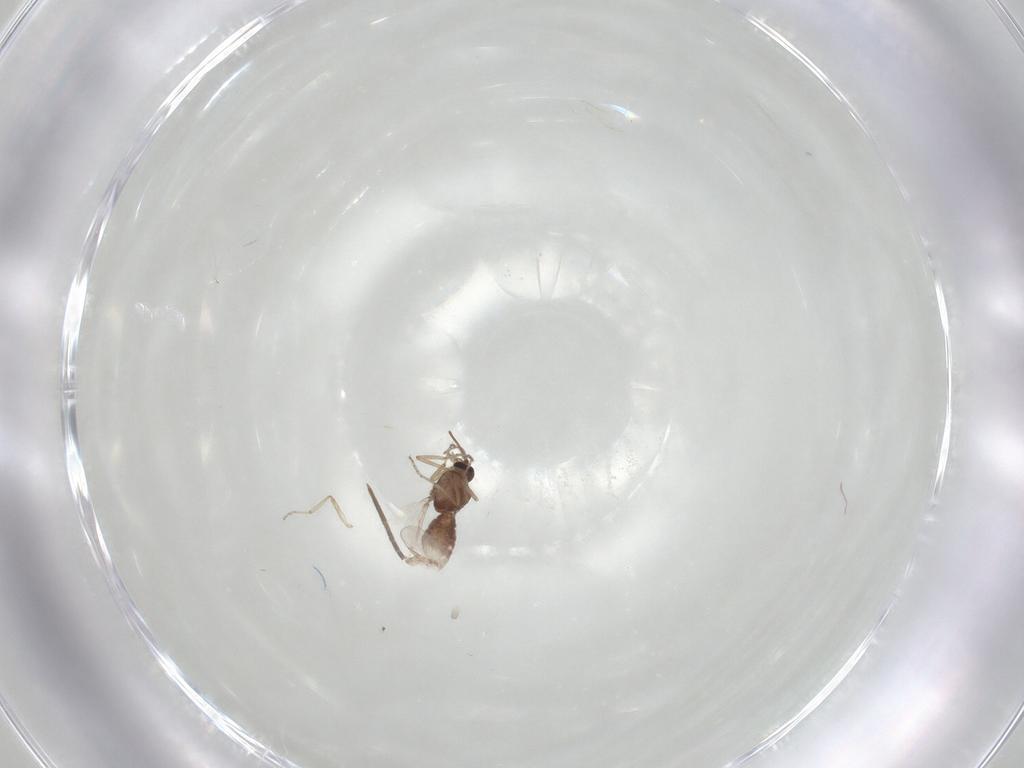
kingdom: Animalia
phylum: Arthropoda
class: Insecta
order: Diptera
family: Ceratopogonidae
